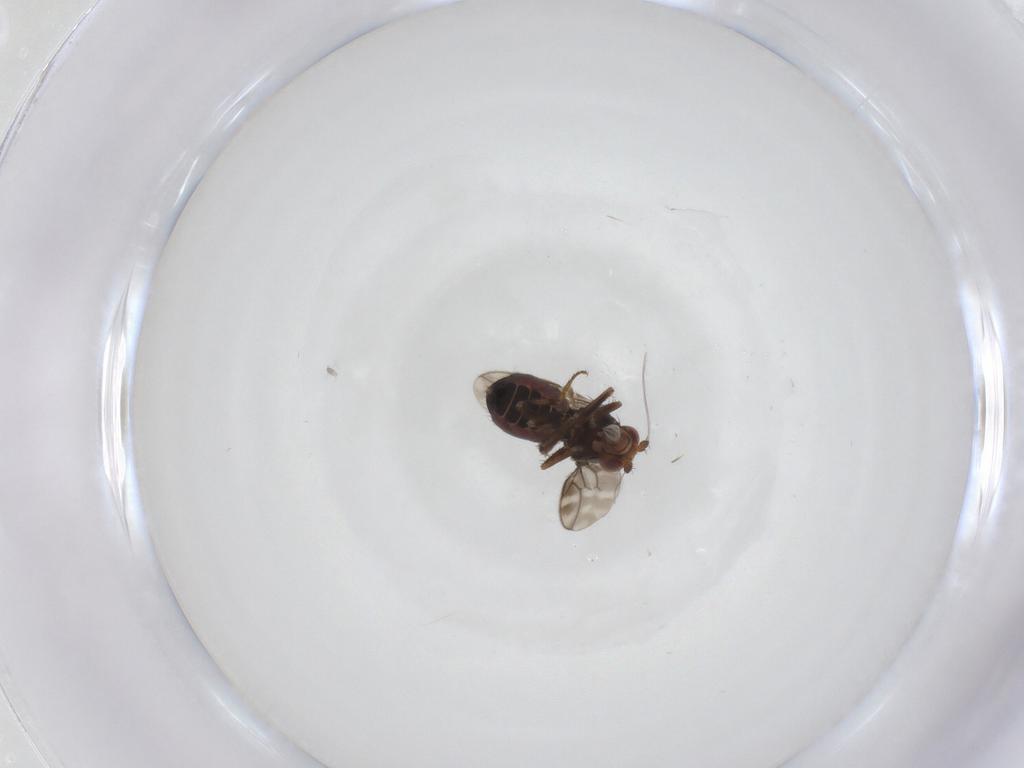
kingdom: Animalia
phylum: Arthropoda
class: Insecta
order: Diptera
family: Sphaeroceridae
